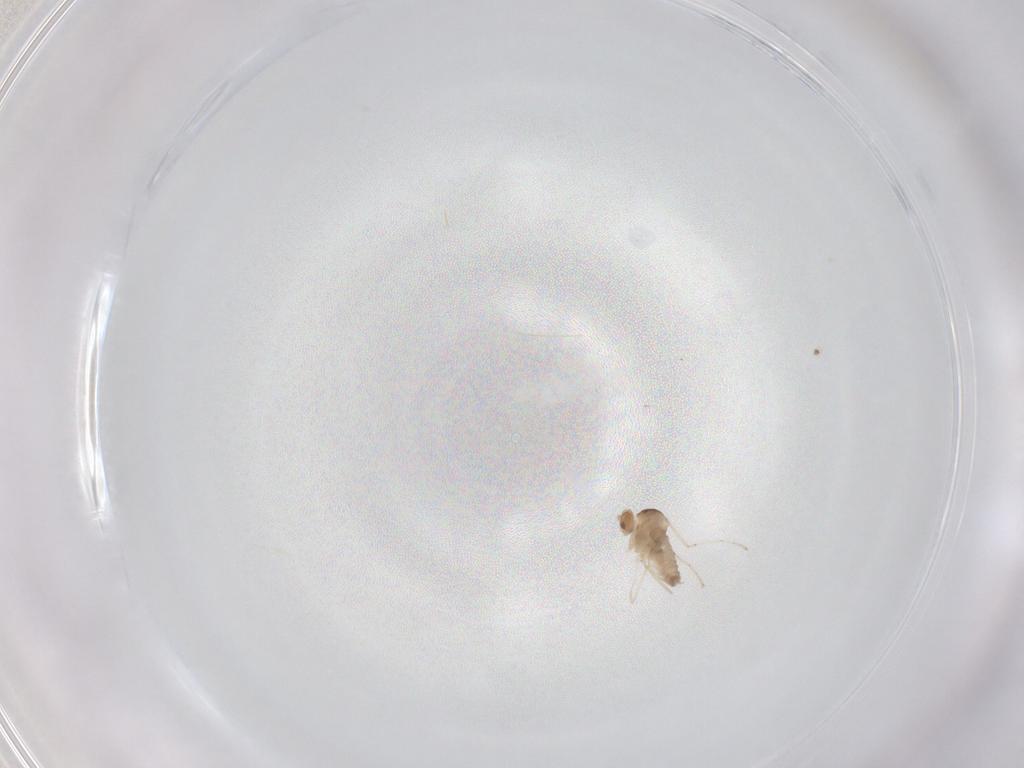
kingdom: Animalia
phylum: Arthropoda
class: Insecta
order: Diptera
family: Cecidomyiidae
